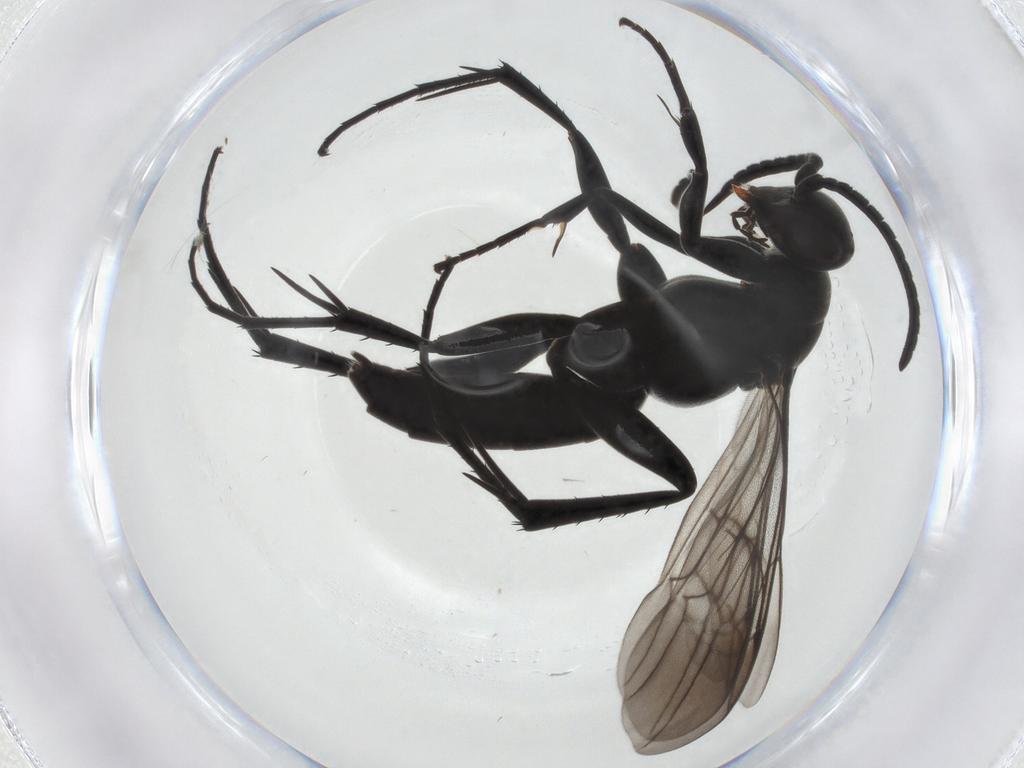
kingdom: Animalia
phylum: Arthropoda
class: Insecta
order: Hymenoptera
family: Pompilidae
